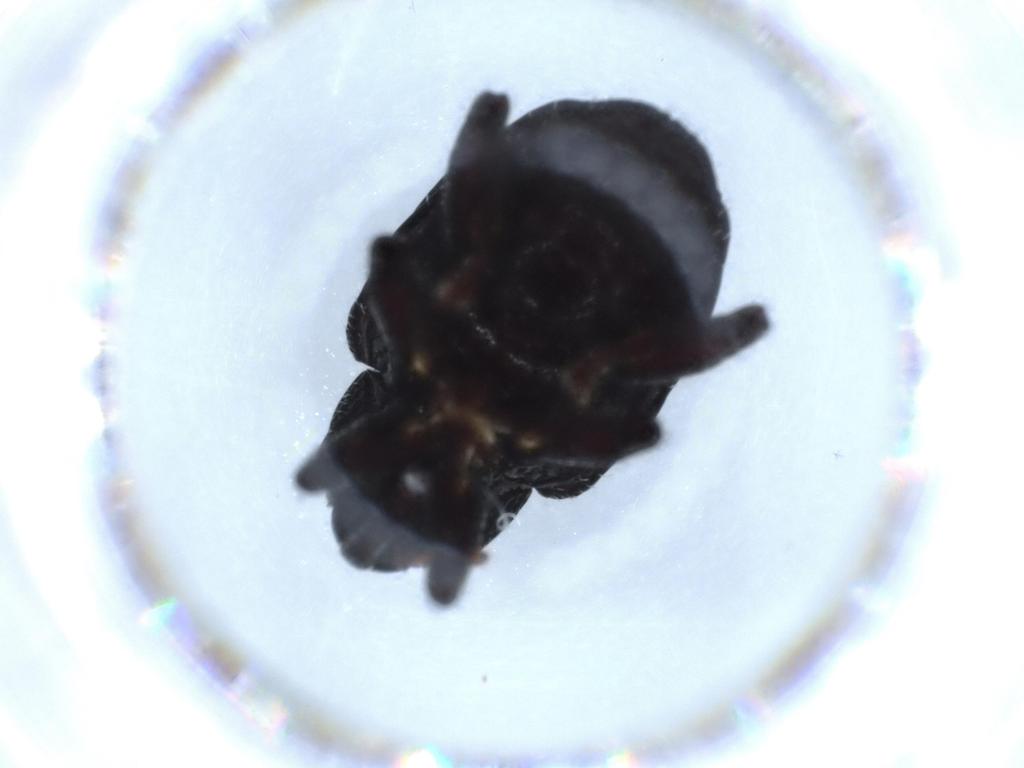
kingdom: Animalia
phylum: Arthropoda
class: Insecta
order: Coleoptera
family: Curculionidae
